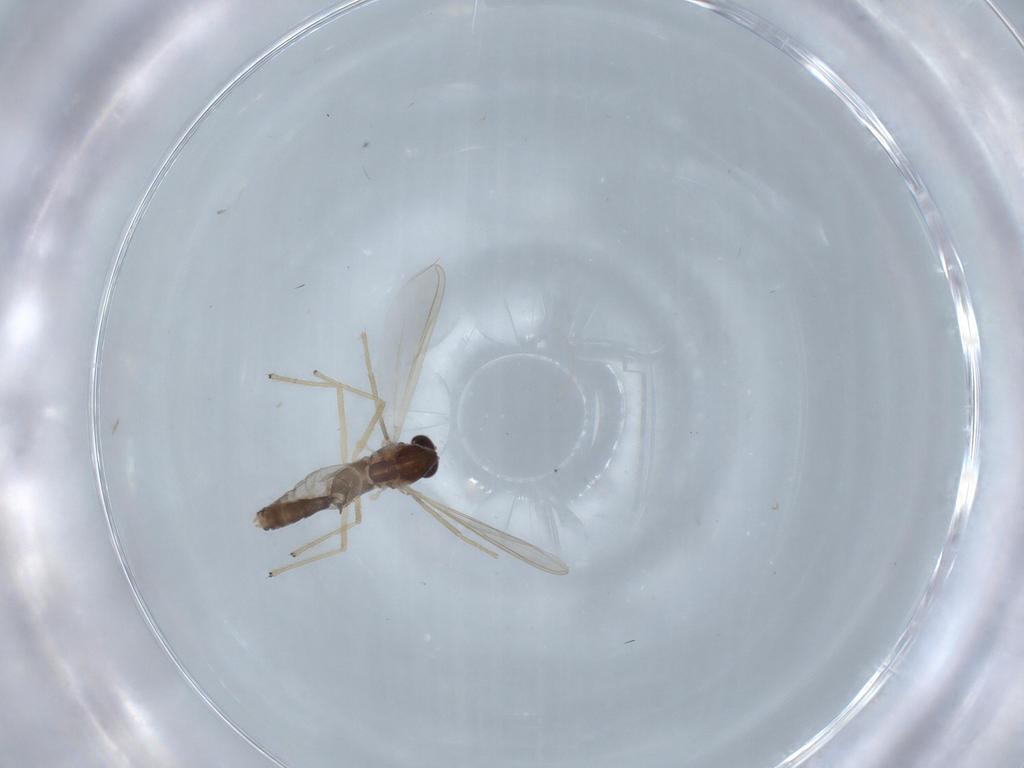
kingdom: Animalia
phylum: Arthropoda
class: Insecta
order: Diptera
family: Chironomidae
